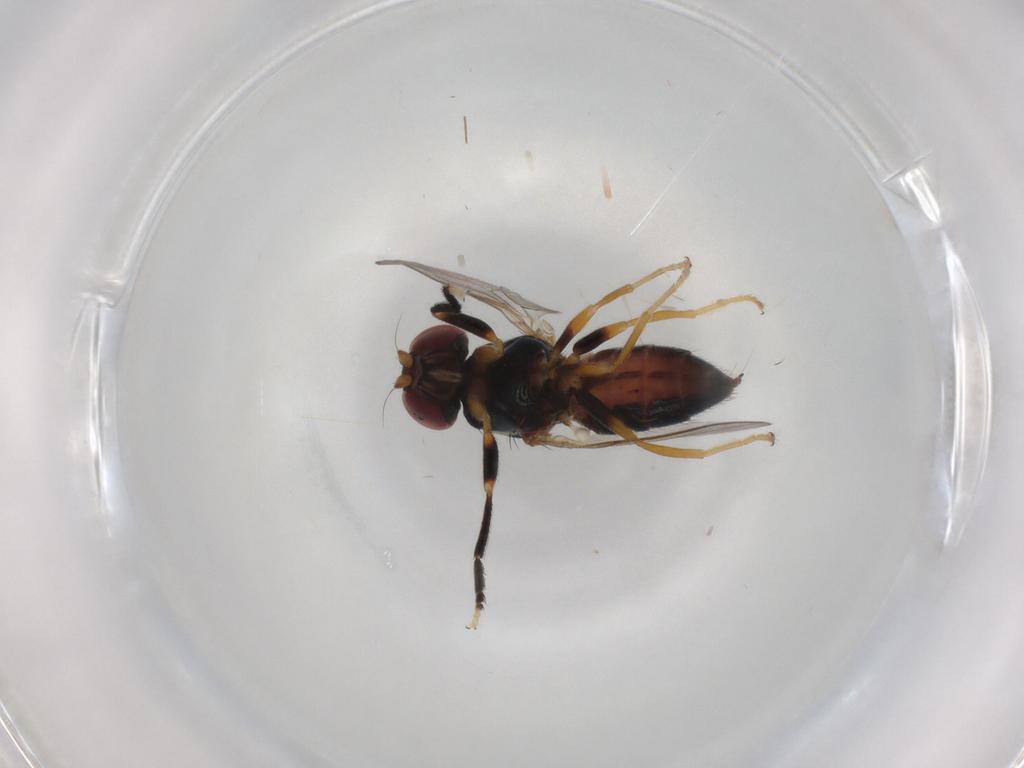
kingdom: Animalia
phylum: Arthropoda
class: Insecta
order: Diptera
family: Chloropidae
